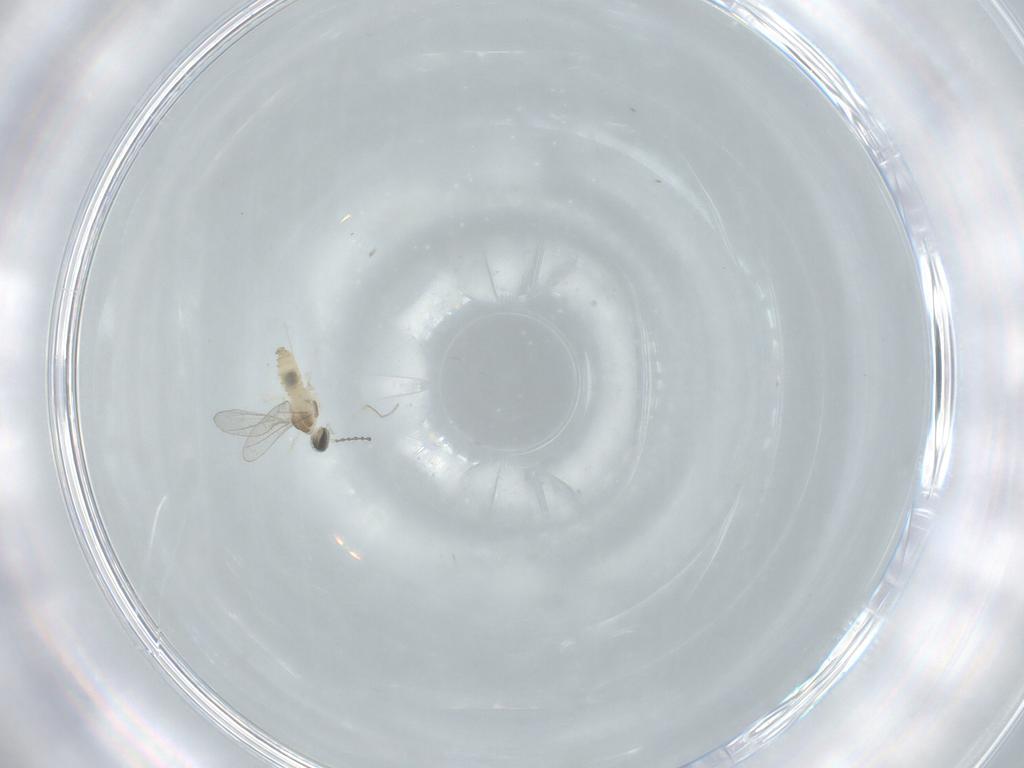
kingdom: Animalia
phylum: Arthropoda
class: Insecta
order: Diptera
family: Cecidomyiidae
